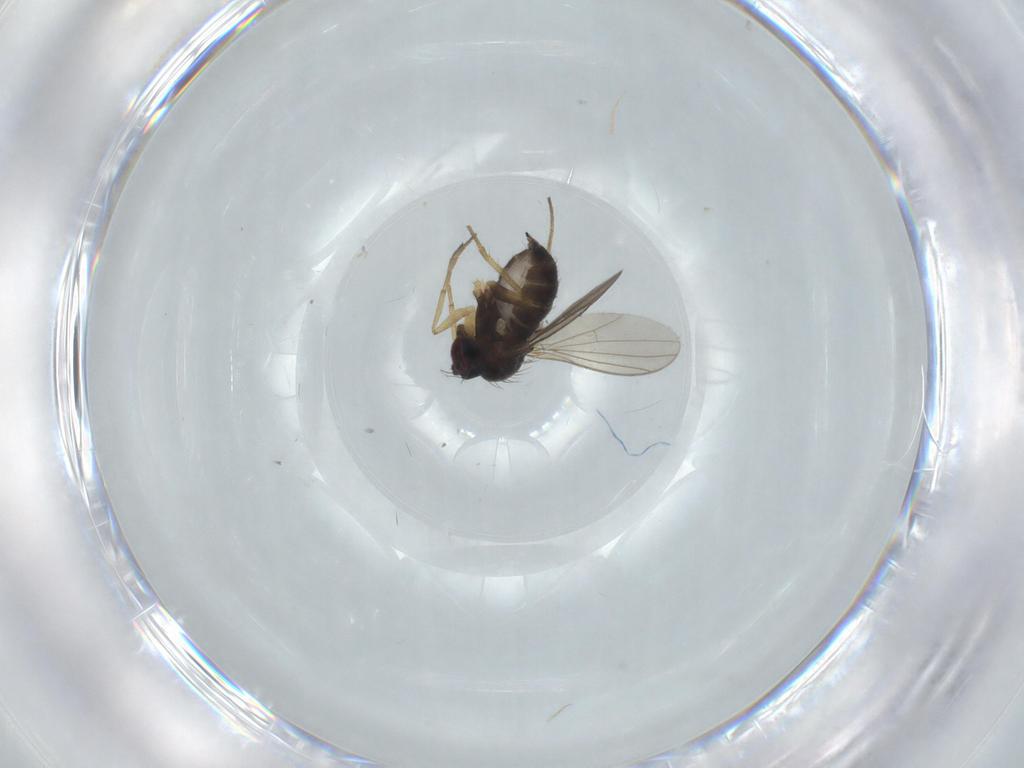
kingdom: Animalia
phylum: Arthropoda
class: Insecta
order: Diptera
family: Dolichopodidae
